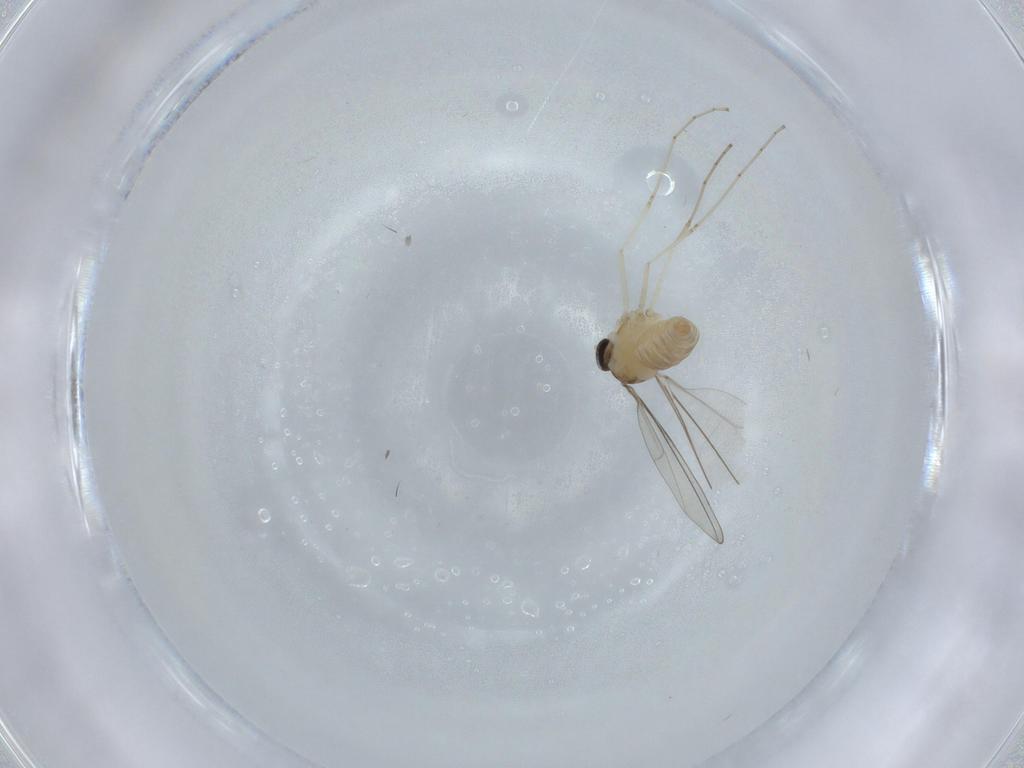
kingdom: Animalia
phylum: Arthropoda
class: Insecta
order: Diptera
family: Cecidomyiidae
